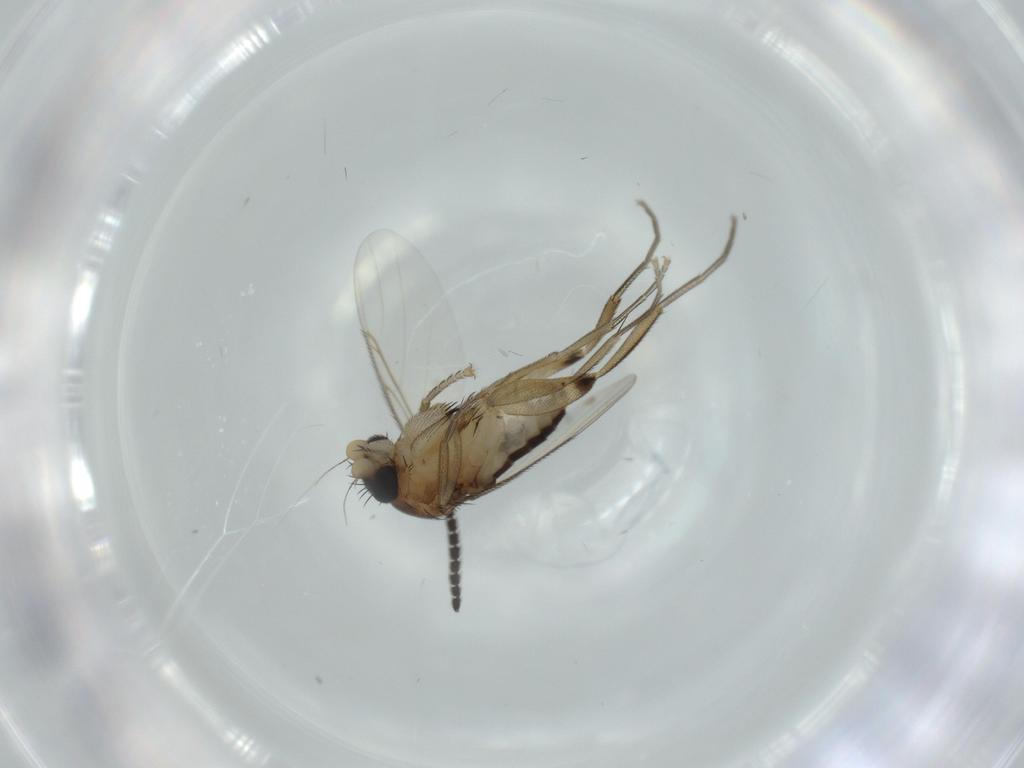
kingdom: Animalia
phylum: Arthropoda
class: Insecta
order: Diptera
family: Phoridae
